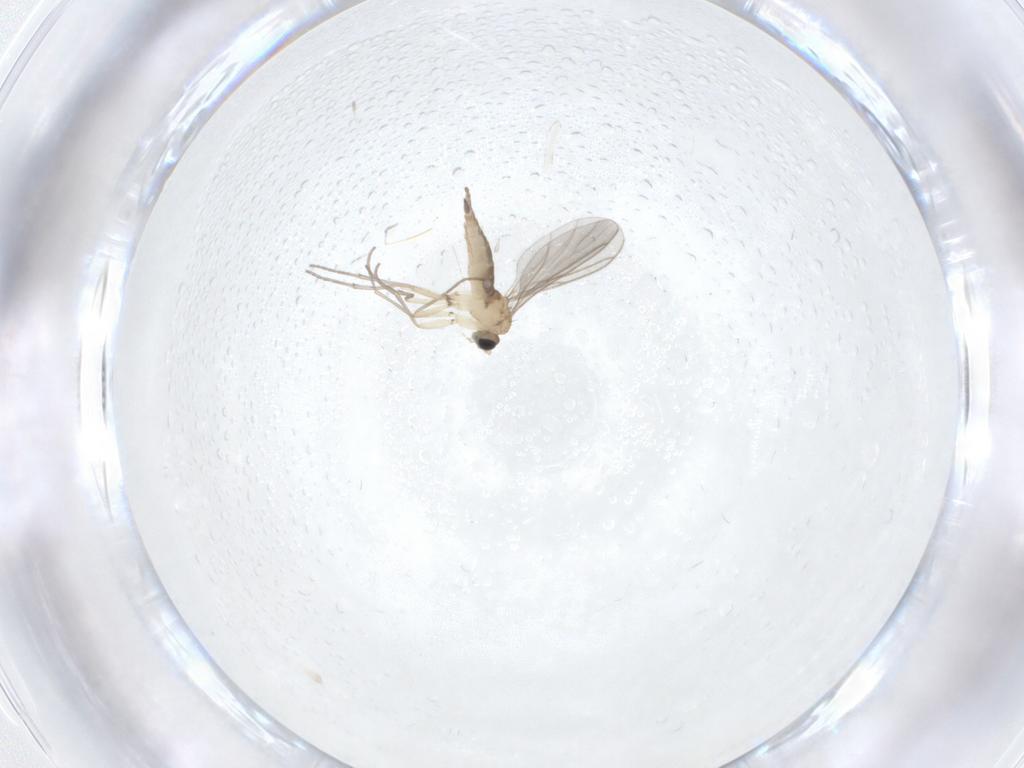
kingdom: Animalia
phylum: Arthropoda
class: Insecta
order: Diptera
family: Sciaridae
